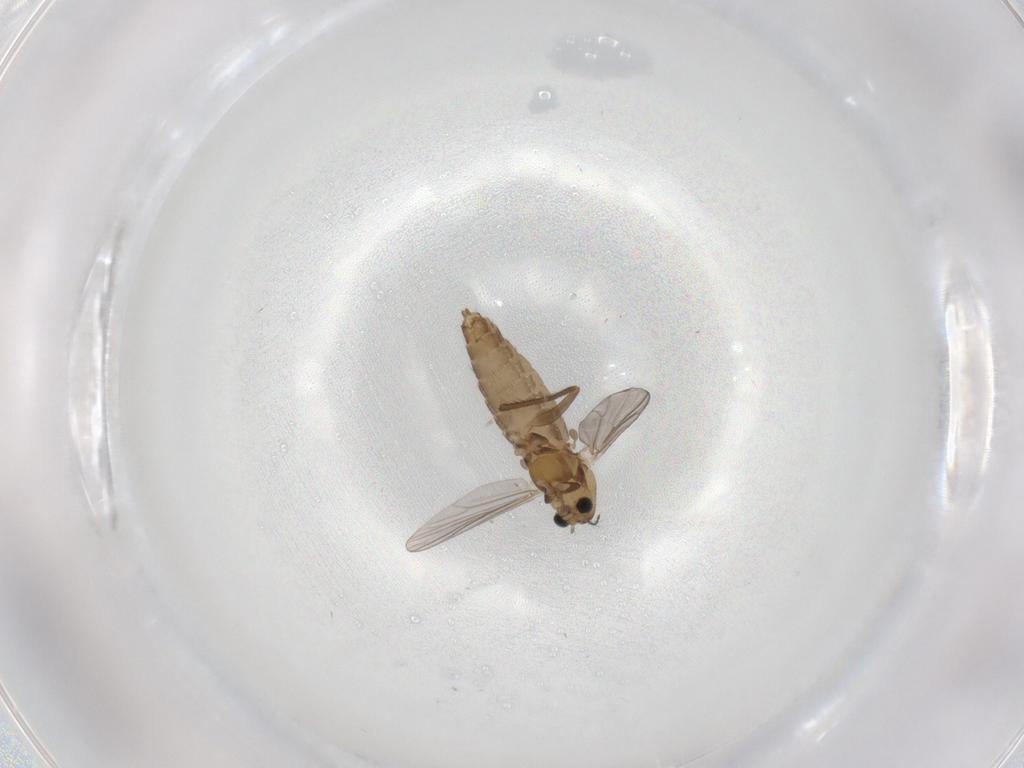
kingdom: Animalia
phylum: Arthropoda
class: Insecta
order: Diptera
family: Chironomidae
